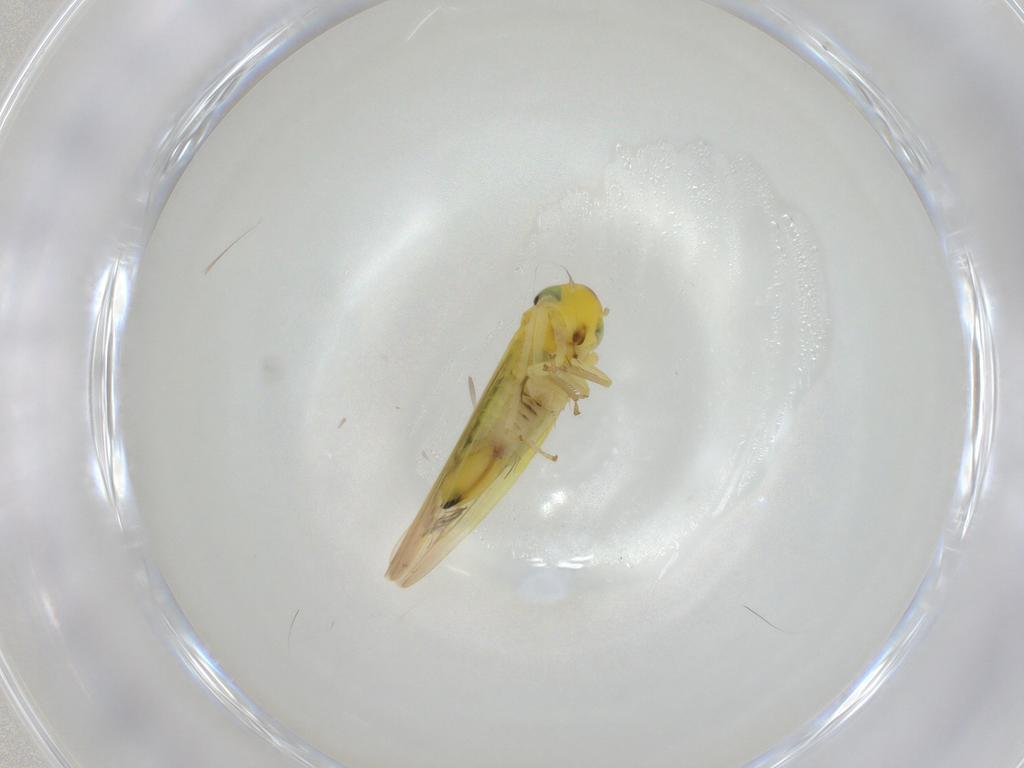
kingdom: Animalia
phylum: Arthropoda
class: Insecta
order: Hemiptera
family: Cicadellidae
